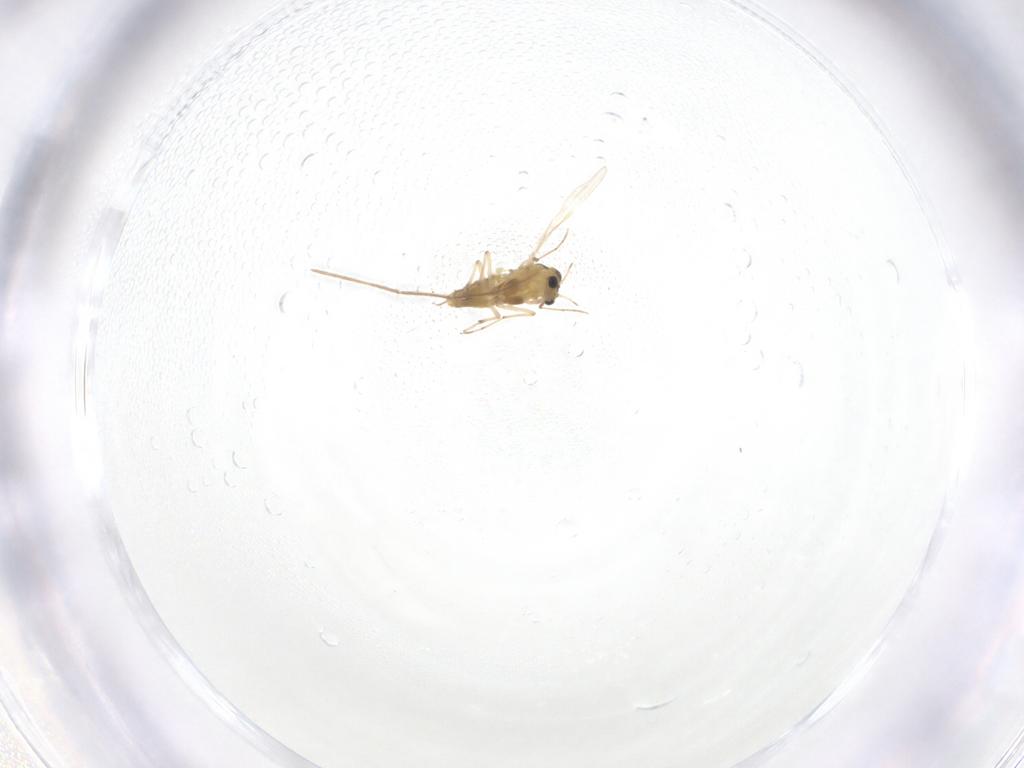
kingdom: Animalia
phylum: Arthropoda
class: Insecta
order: Diptera
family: Chironomidae
